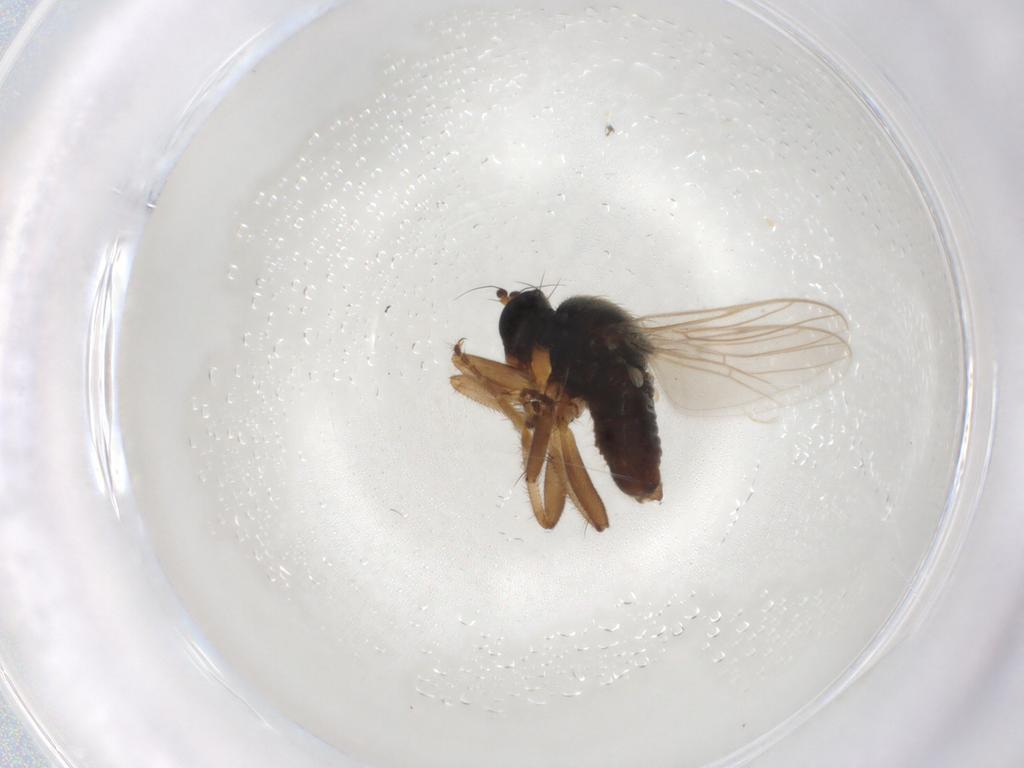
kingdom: Animalia
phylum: Arthropoda
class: Insecta
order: Diptera
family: Hybotidae
